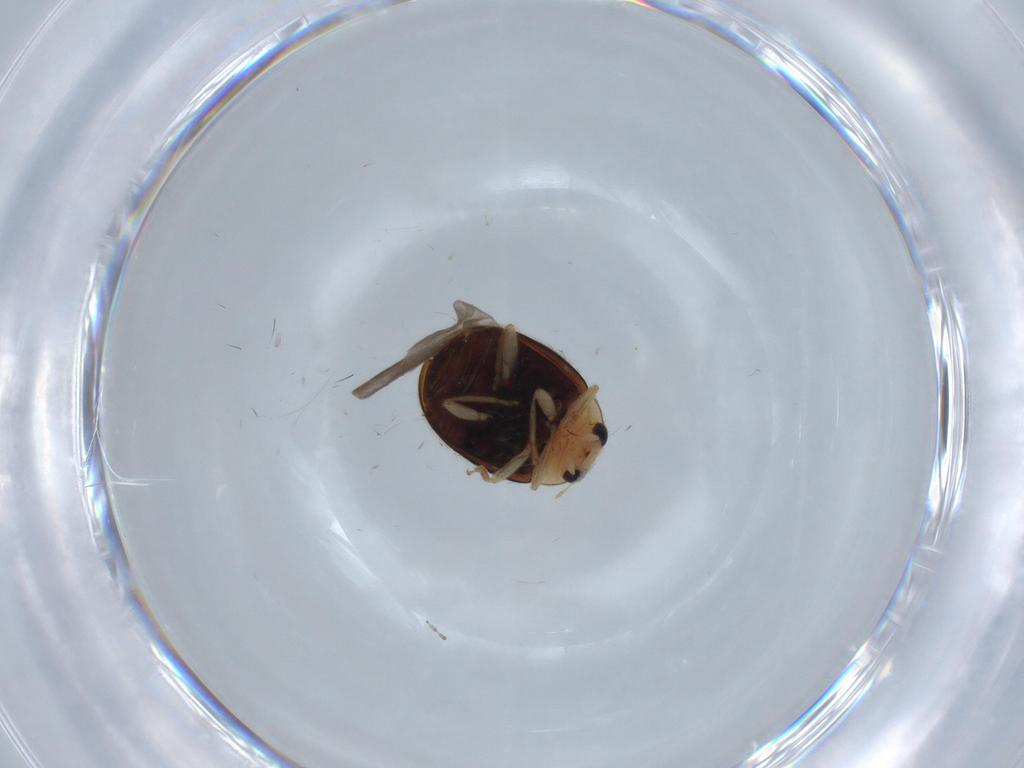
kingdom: Animalia
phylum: Arthropoda
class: Insecta
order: Coleoptera
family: Coccinellidae
